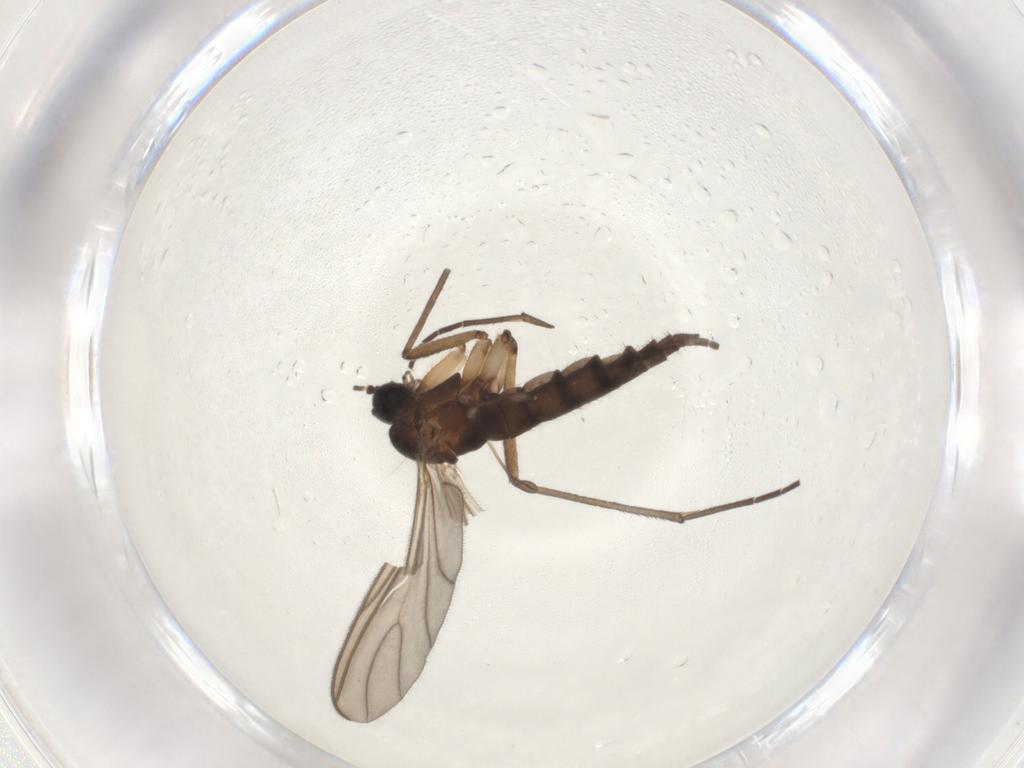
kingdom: Animalia
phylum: Arthropoda
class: Insecta
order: Diptera
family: Sciaridae
